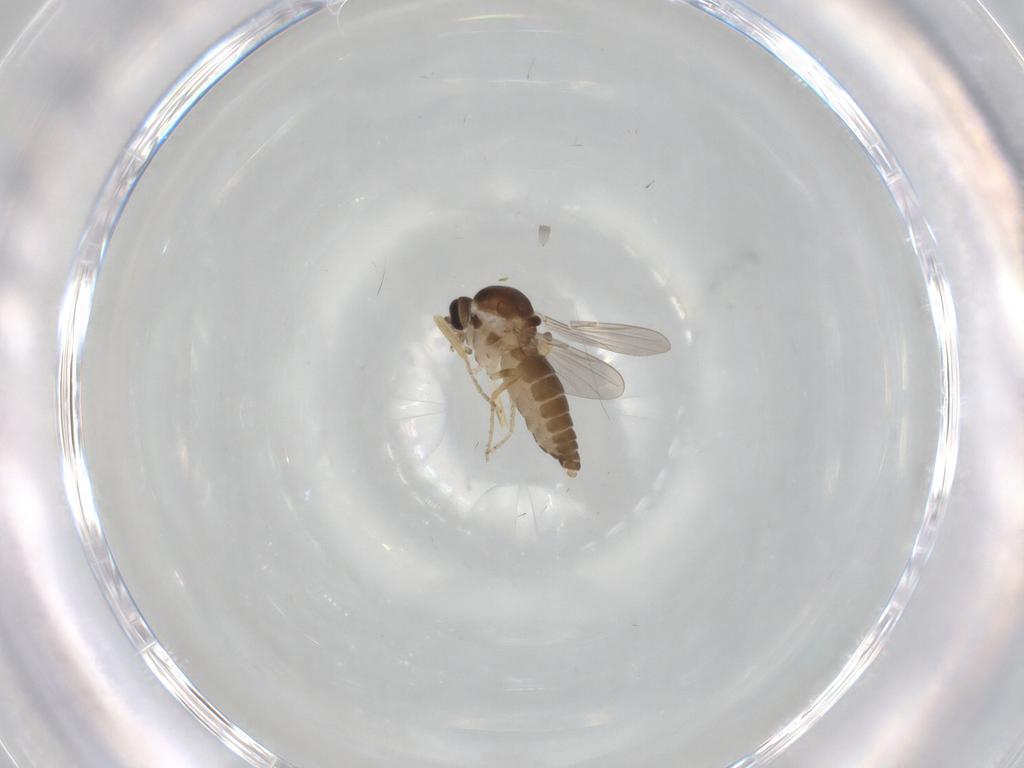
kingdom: Animalia
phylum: Arthropoda
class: Insecta
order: Diptera
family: Ceratopogonidae
